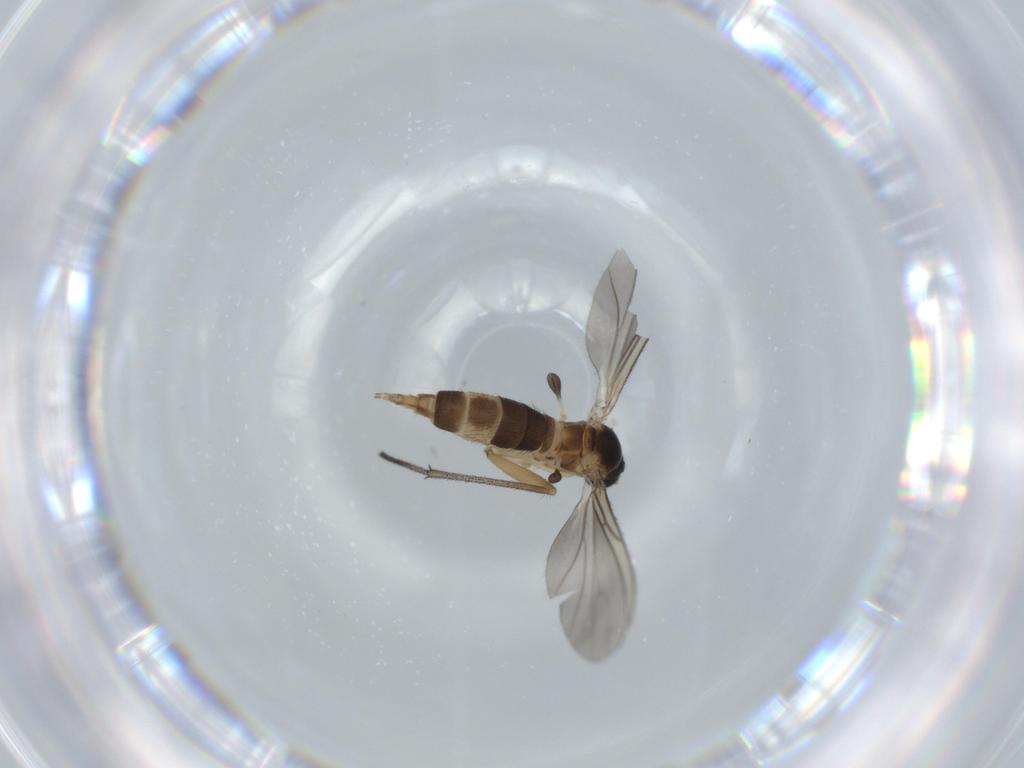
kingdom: Animalia
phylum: Arthropoda
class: Insecta
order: Diptera
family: Sciaridae
